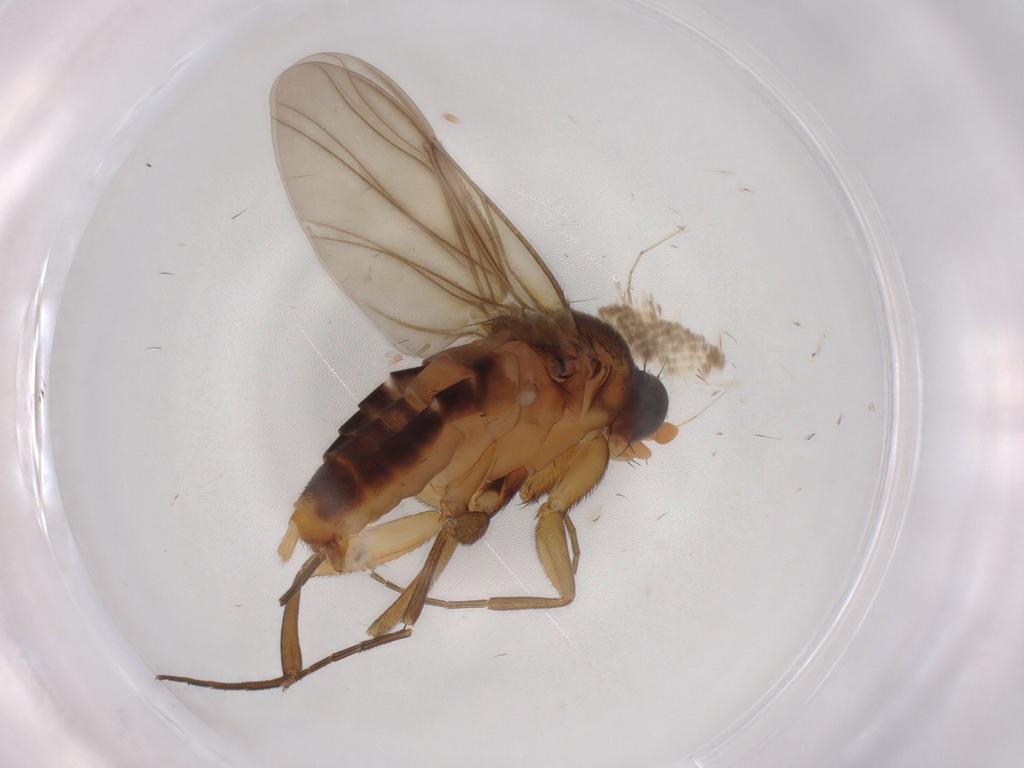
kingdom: Animalia
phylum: Arthropoda
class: Insecta
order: Diptera
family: Phoridae
